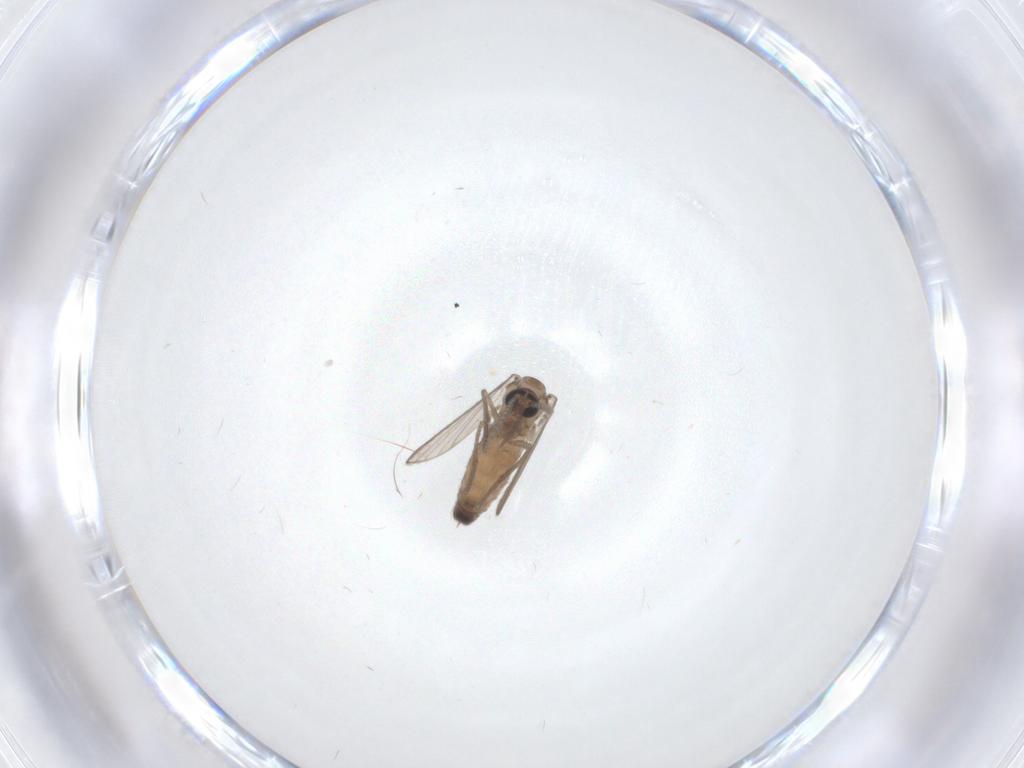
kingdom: Animalia
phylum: Arthropoda
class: Insecta
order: Diptera
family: Psychodidae
